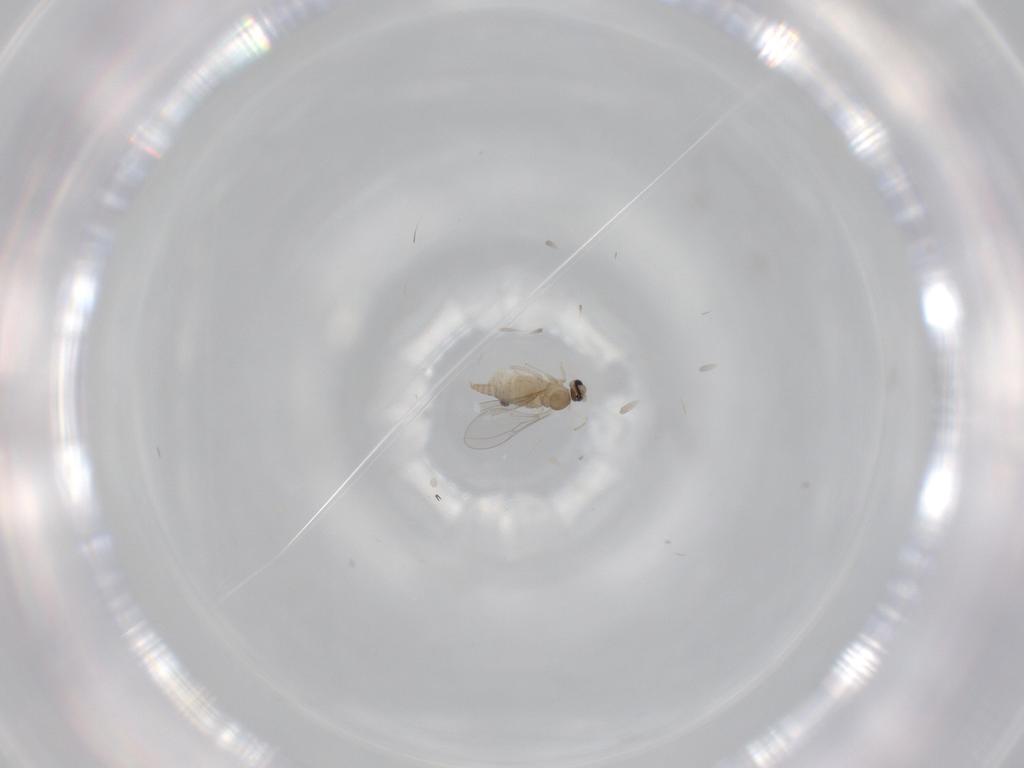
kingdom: Animalia
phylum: Arthropoda
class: Insecta
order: Diptera
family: Cecidomyiidae
